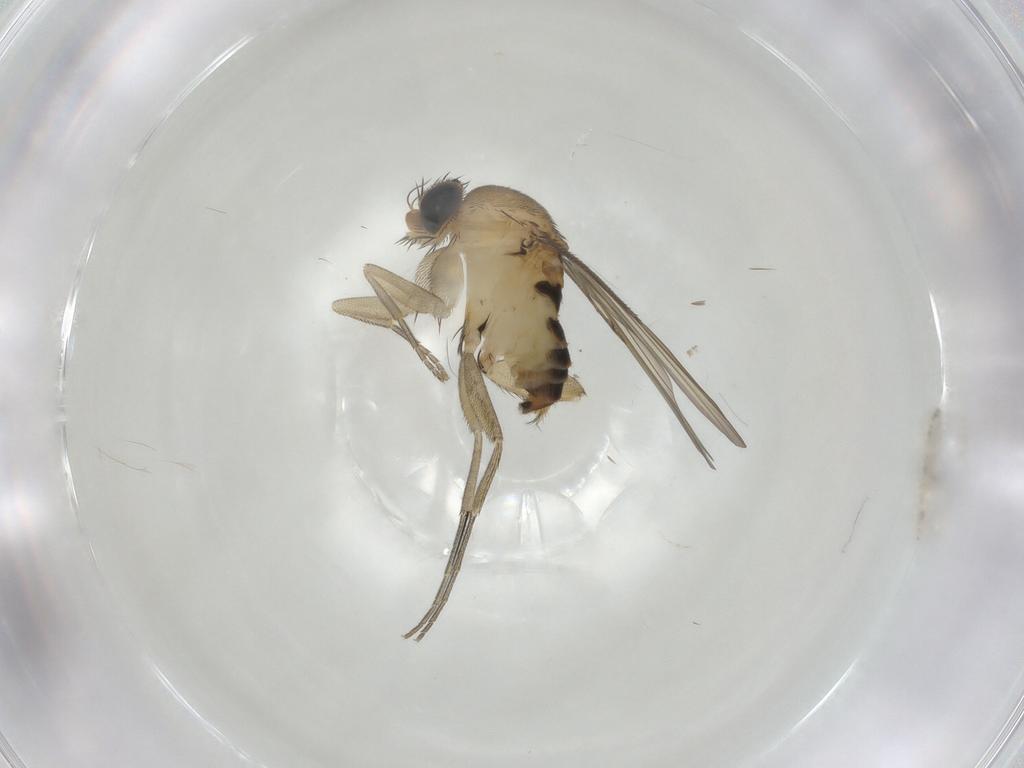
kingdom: Animalia
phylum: Arthropoda
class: Insecta
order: Diptera
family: Phoridae
